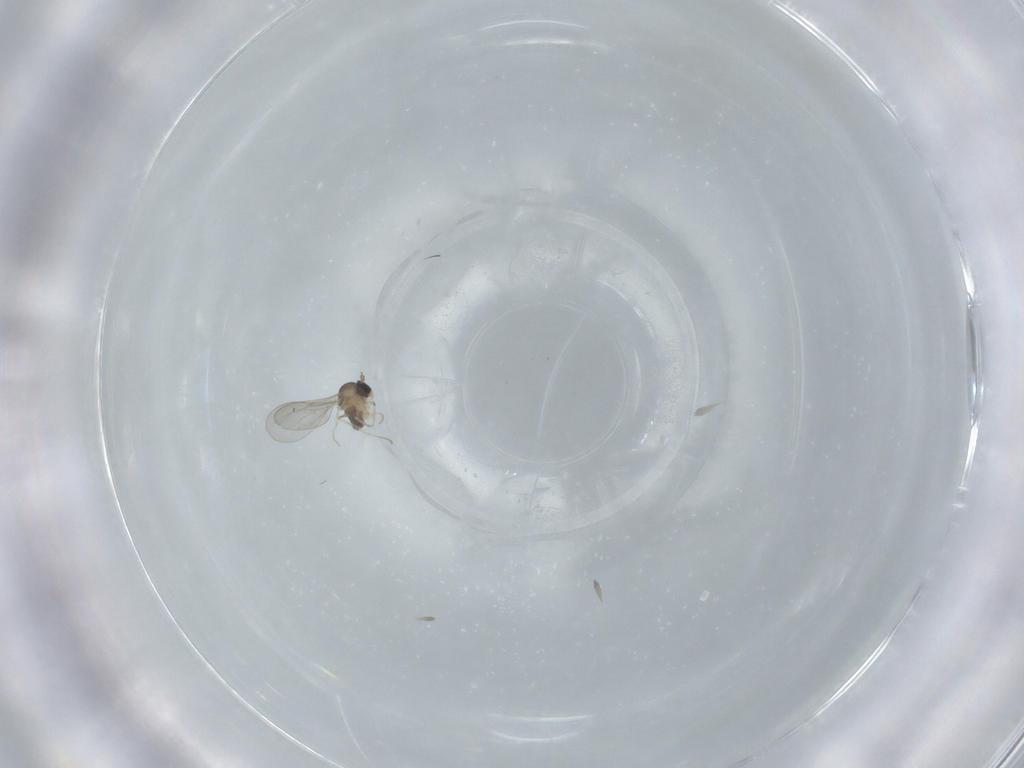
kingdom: Animalia
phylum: Arthropoda
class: Insecta
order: Diptera
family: Cecidomyiidae
